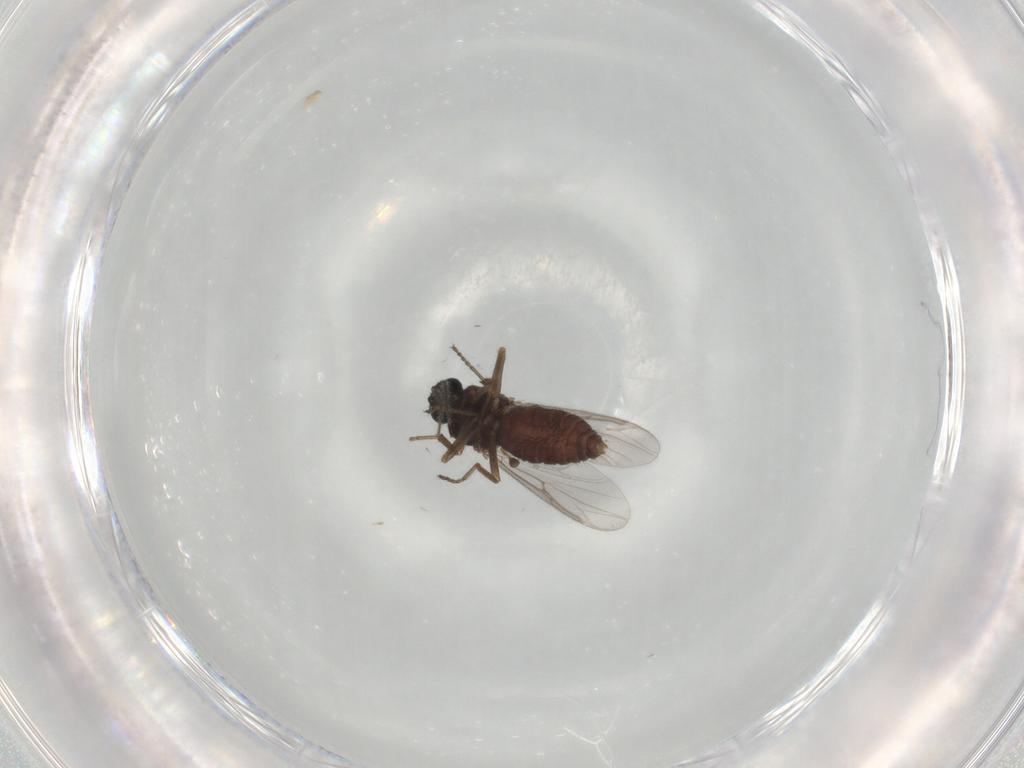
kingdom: Animalia
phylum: Arthropoda
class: Insecta
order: Diptera
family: Ceratopogonidae
